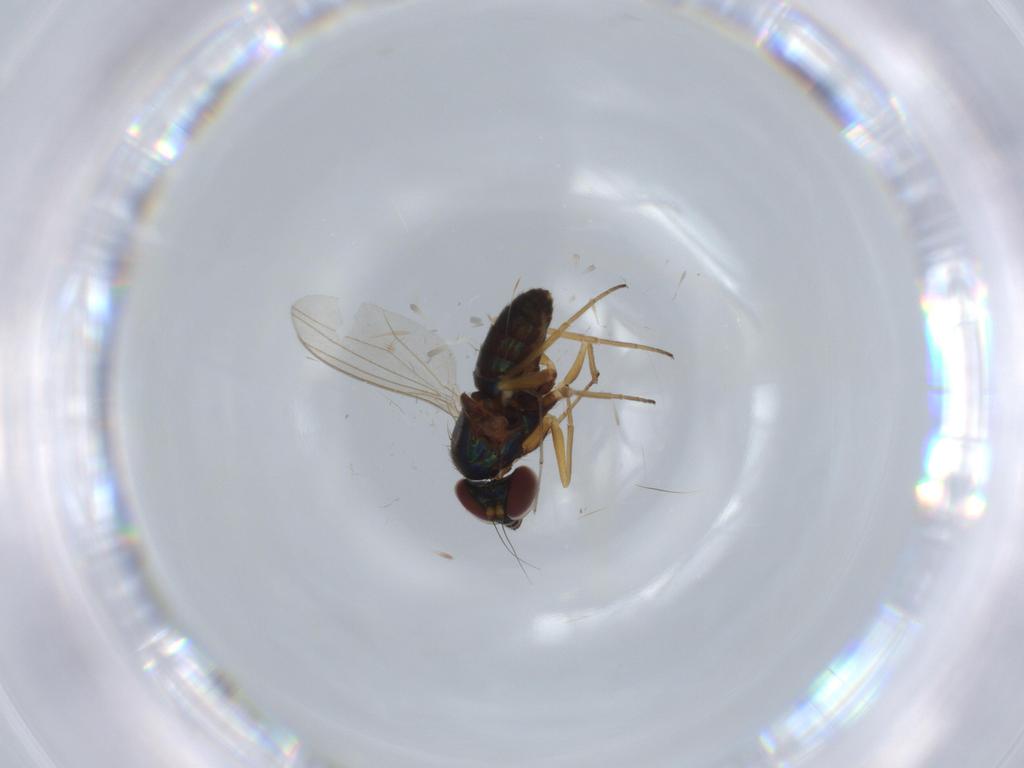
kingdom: Animalia
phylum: Arthropoda
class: Insecta
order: Diptera
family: Chironomidae
